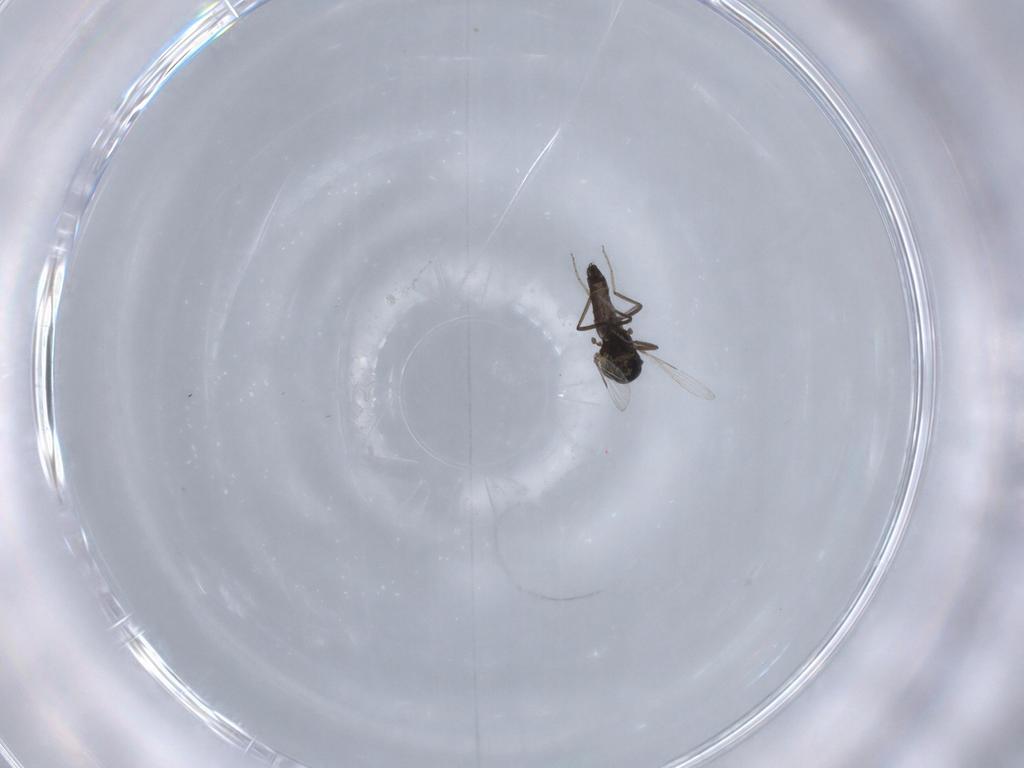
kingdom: Animalia
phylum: Arthropoda
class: Insecta
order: Diptera
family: Ceratopogonidae
